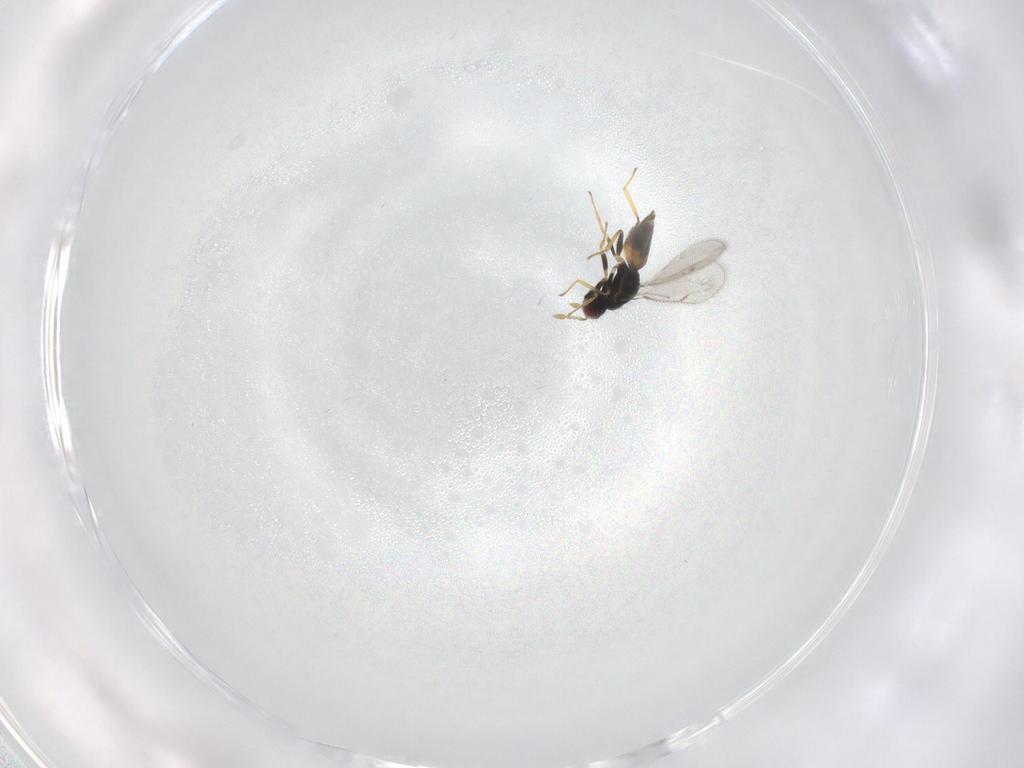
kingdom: Animalia
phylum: Arthropoda
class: Insecta
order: Hymenoptera
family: Eulophidae
